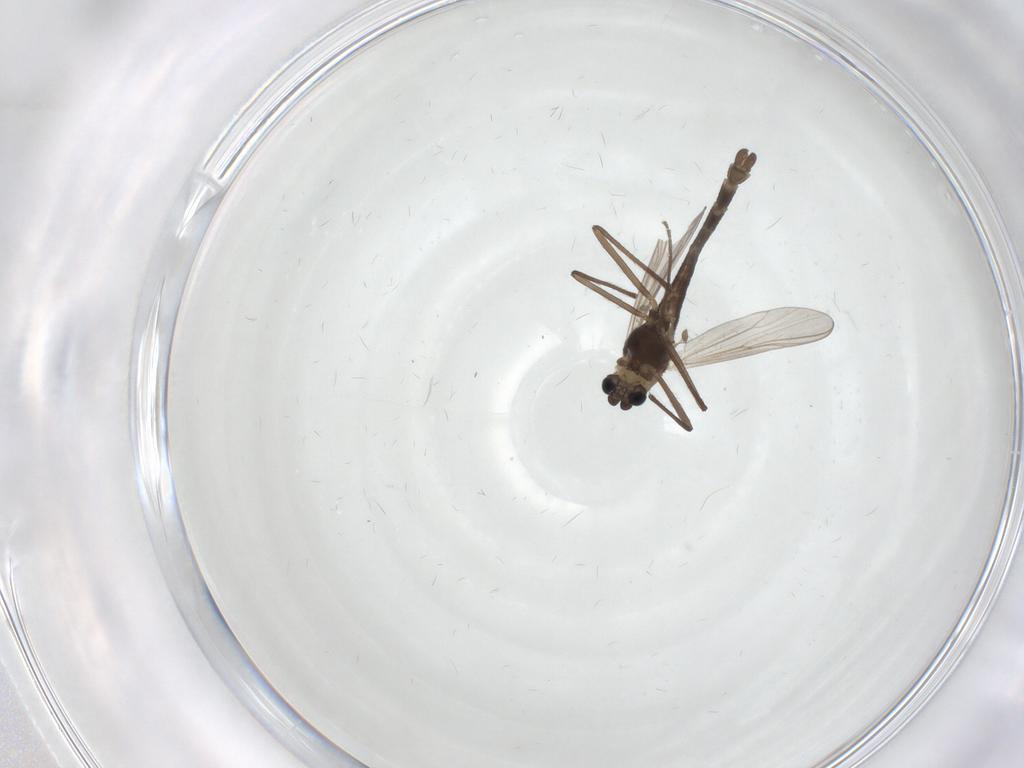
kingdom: Animalia
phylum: Arthropoda
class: Insecta
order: Diptera
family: Chironomidae
